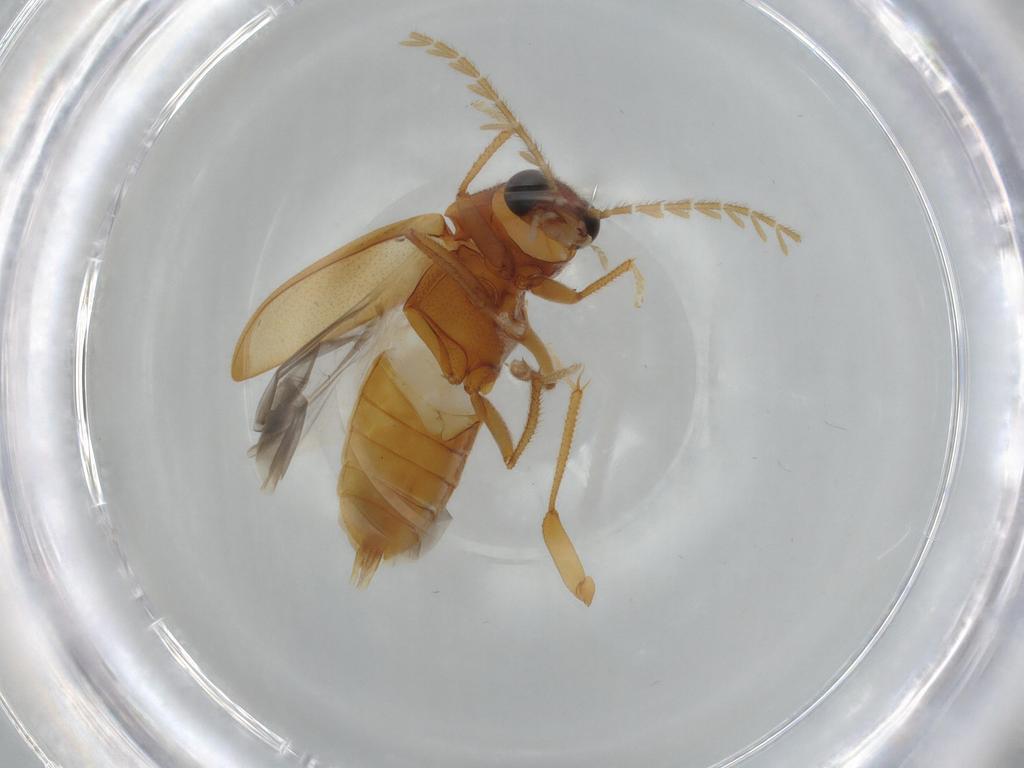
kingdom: Animalia
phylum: Arthropoda
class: Insecta
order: Coleoptera
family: Ptilodactylidae
